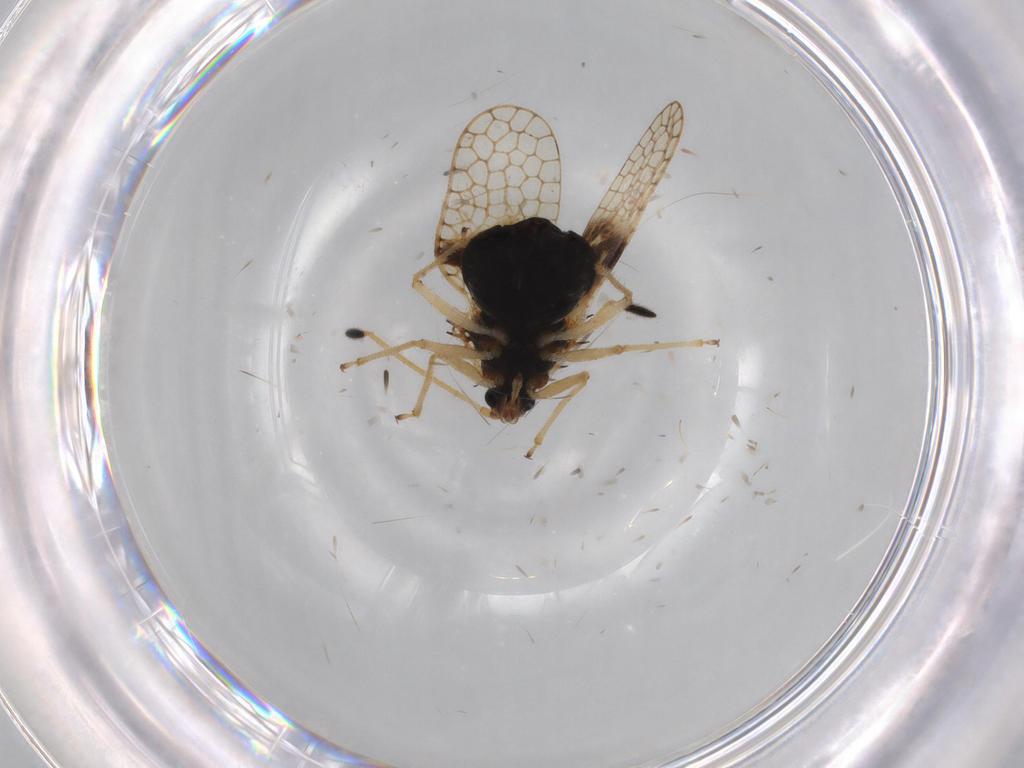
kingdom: Animalia
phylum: Arthropoda
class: Insecta
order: Hemiptera
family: Tingidae
